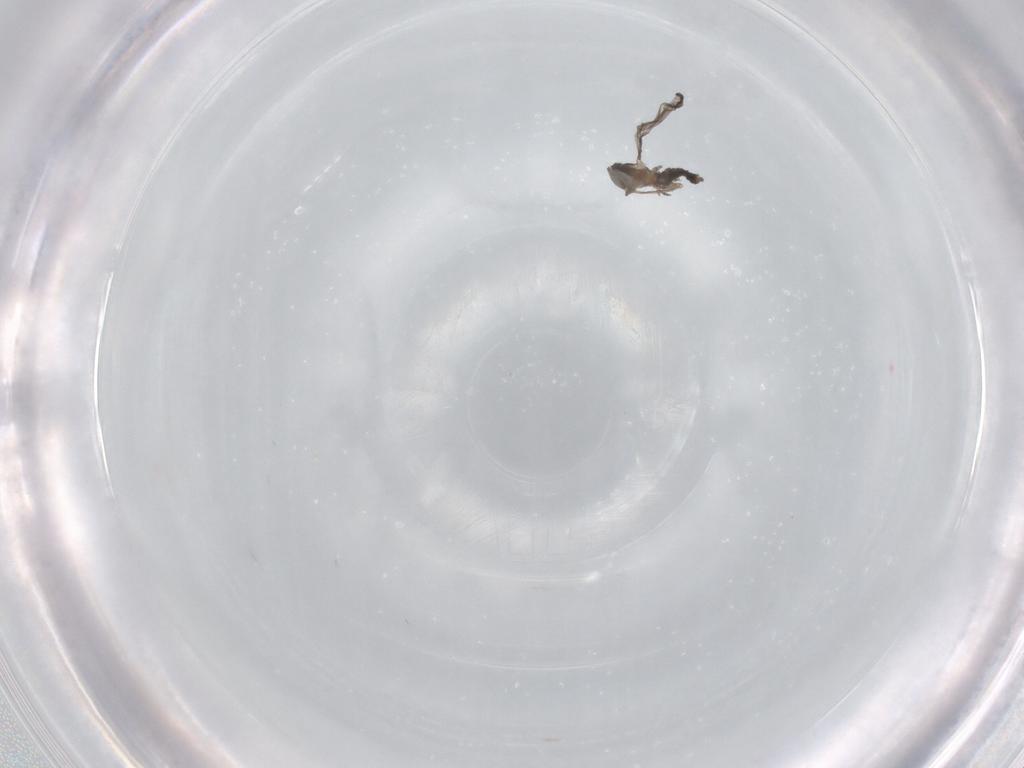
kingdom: Animalia
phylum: Arthropoda
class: Insecta
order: Diptera
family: Cecidomyiidae
